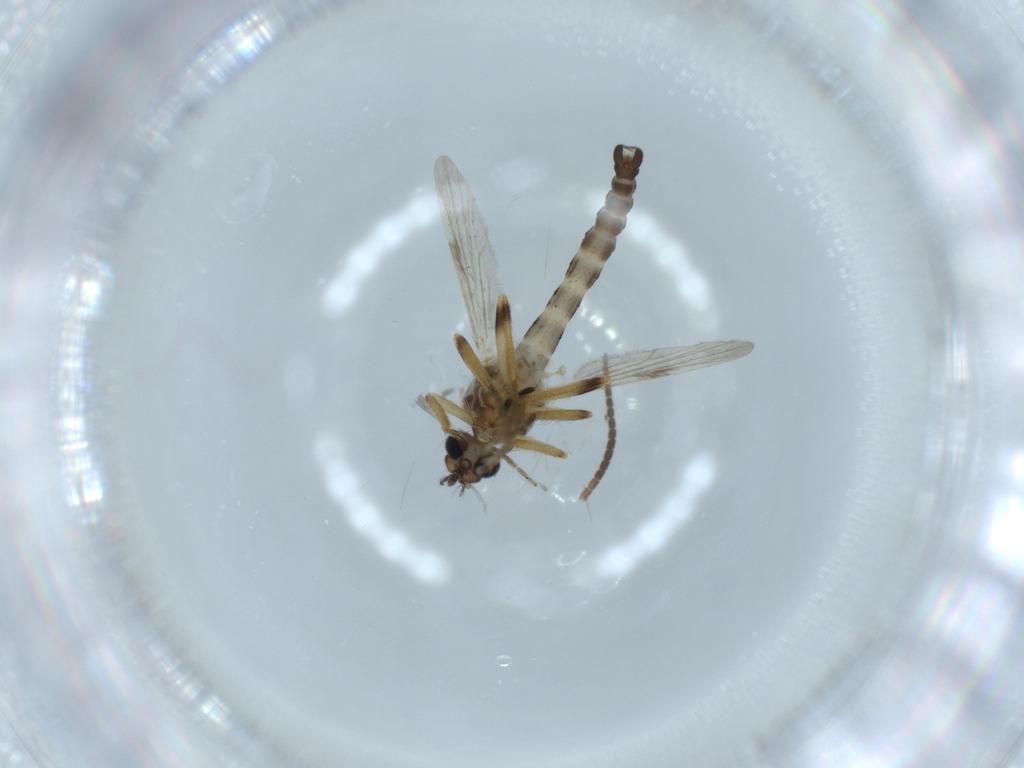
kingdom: Animalia
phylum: Arthropoda
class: Insecta
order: Diptera
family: Ceratopogonidae
